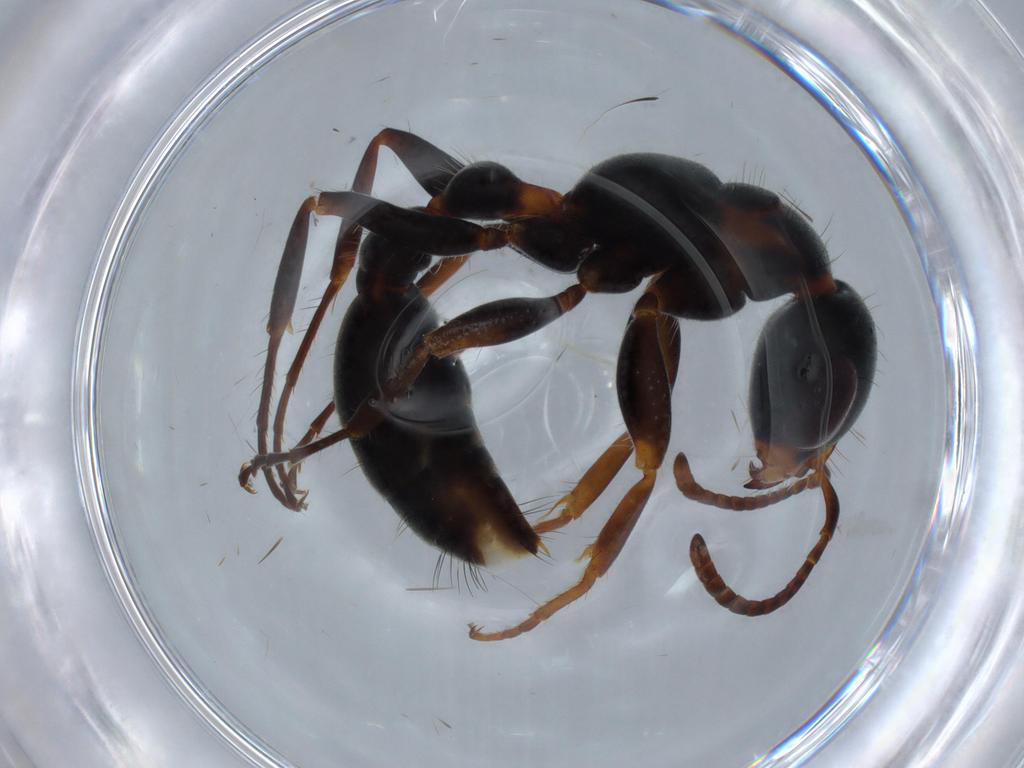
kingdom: Animalia
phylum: Arthropoda
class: Insecta
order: Hymenoptera
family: Formicidae
